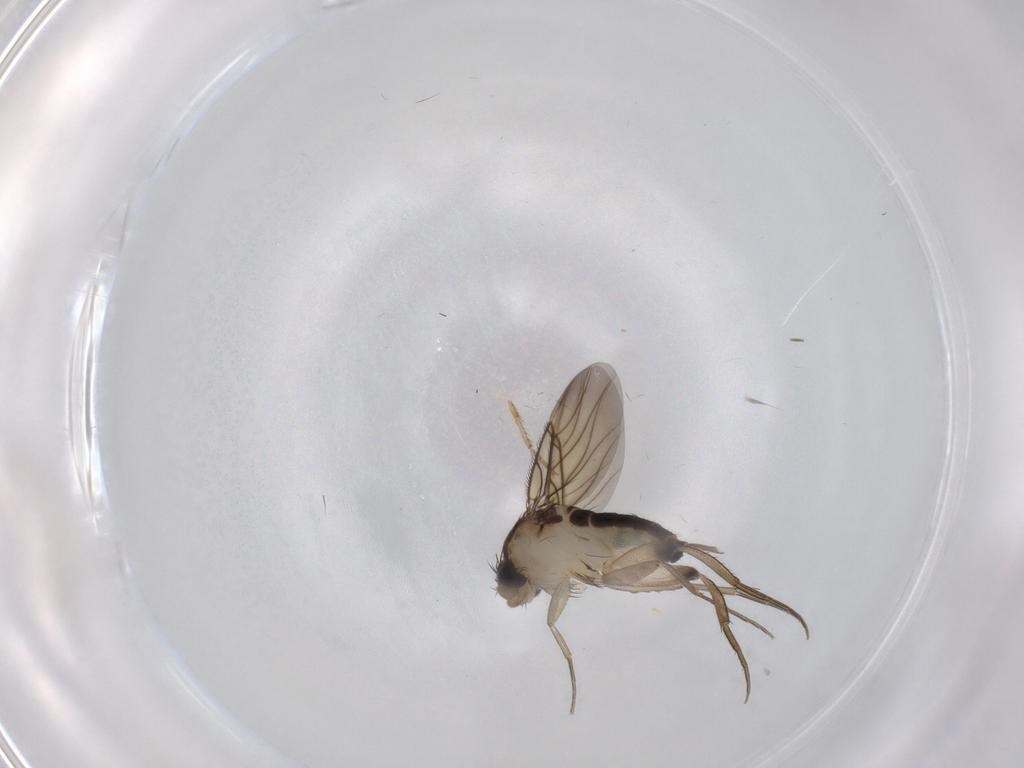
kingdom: Animalia
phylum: Arthropoda
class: Insecta
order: Diptera
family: Phoridae
